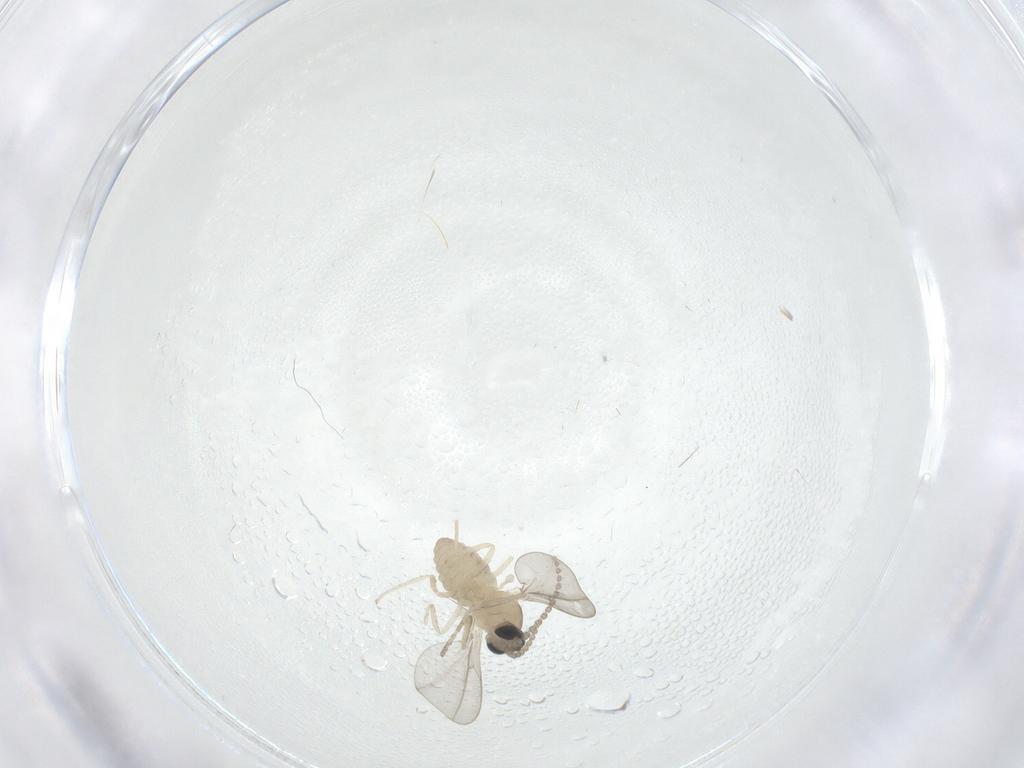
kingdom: Animalia
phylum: Arthropoda
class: Insecta
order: Diptera
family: Cecidomyiidae
